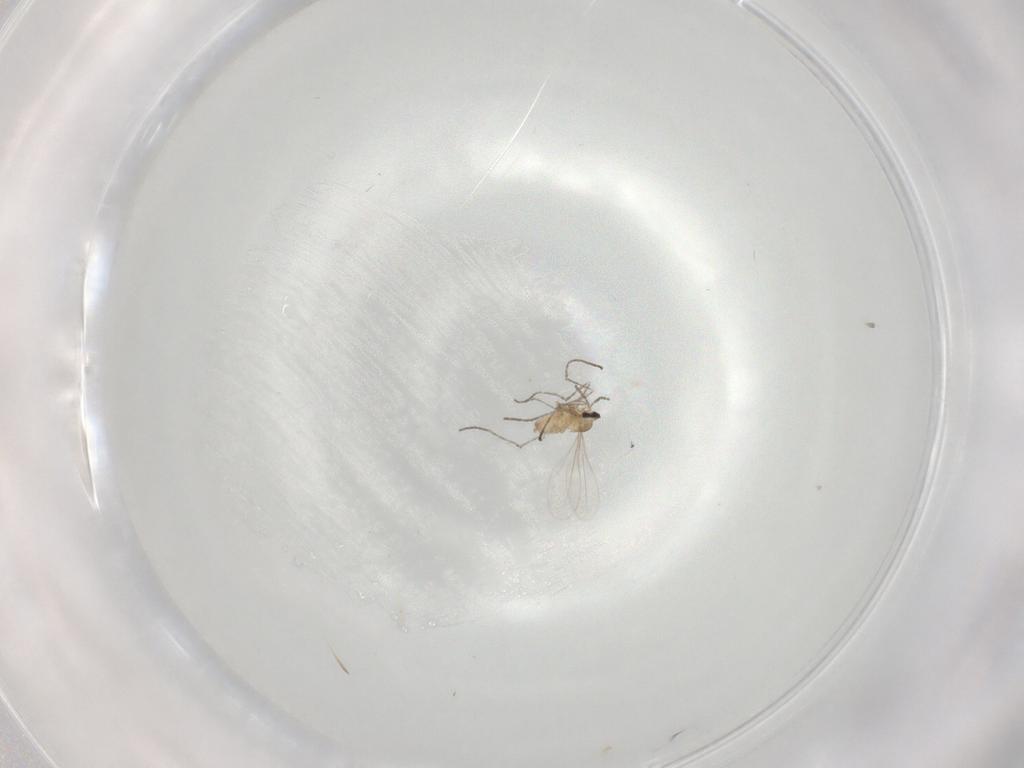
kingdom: Animalia
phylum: Arthropoda
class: Insecta
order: Diptera
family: Cecidomyiidae
